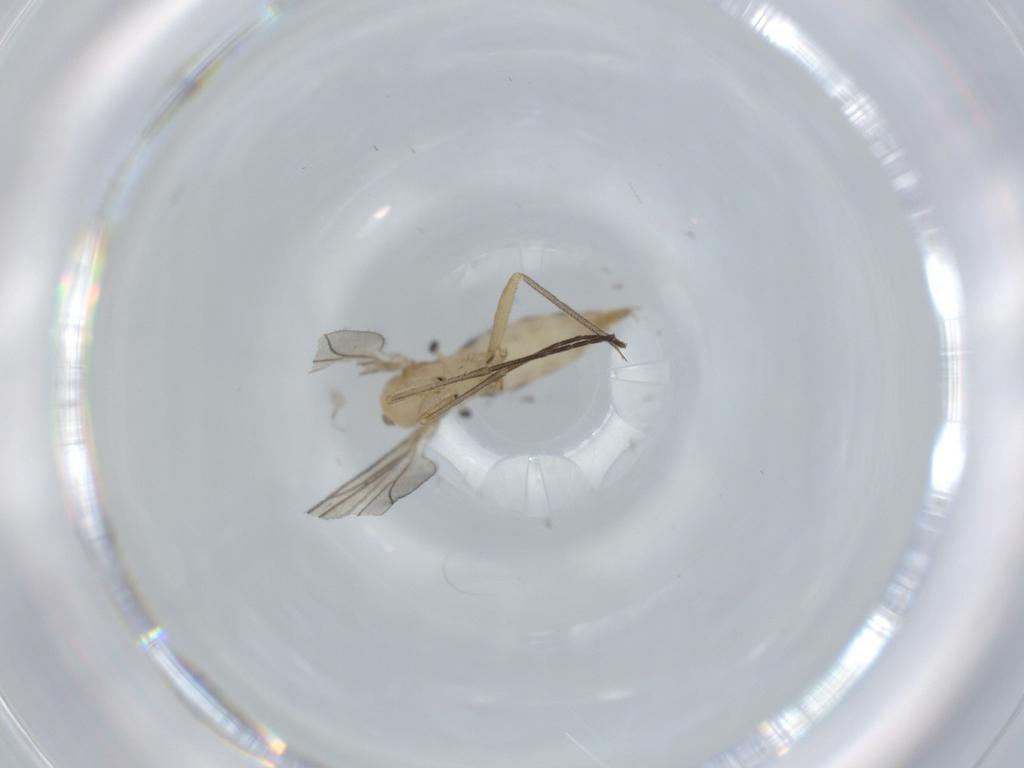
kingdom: Animalia
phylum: Arthropoda
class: Insecta
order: Diptera
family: Sciaridae
